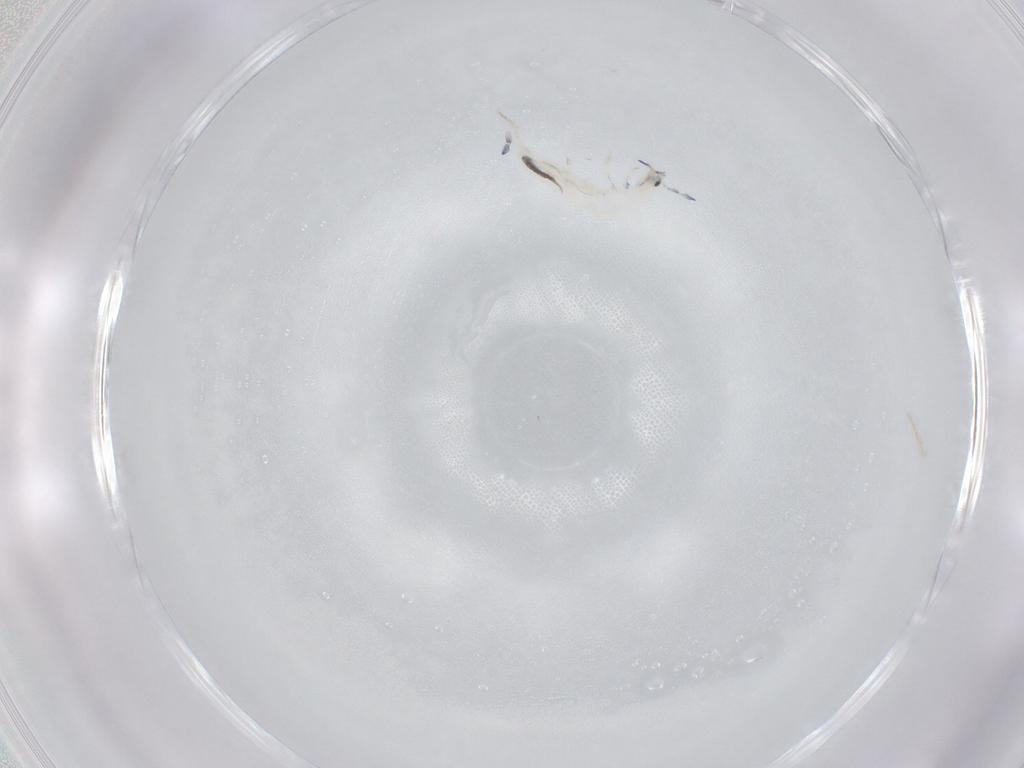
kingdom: Animalia
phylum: Arthropoda
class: Collembola
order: Entomobryomorpha
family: Entomobryidae
